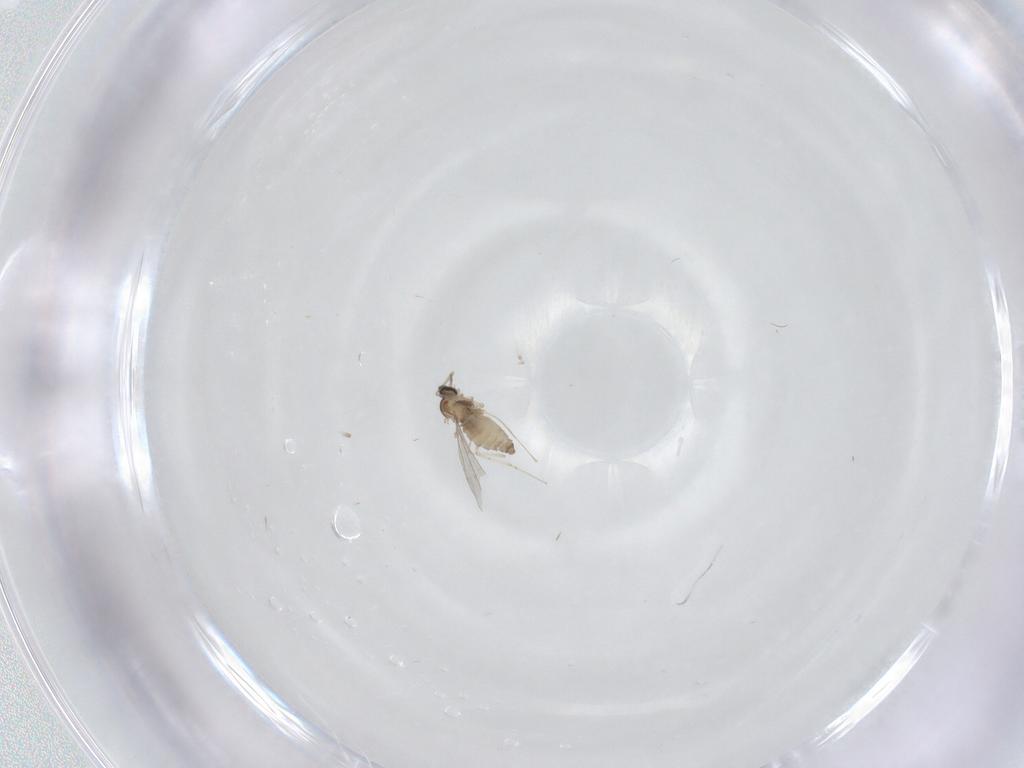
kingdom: Animalia
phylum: Arthropoda
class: Insecta
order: Diptera
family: Cecidomyiidae
